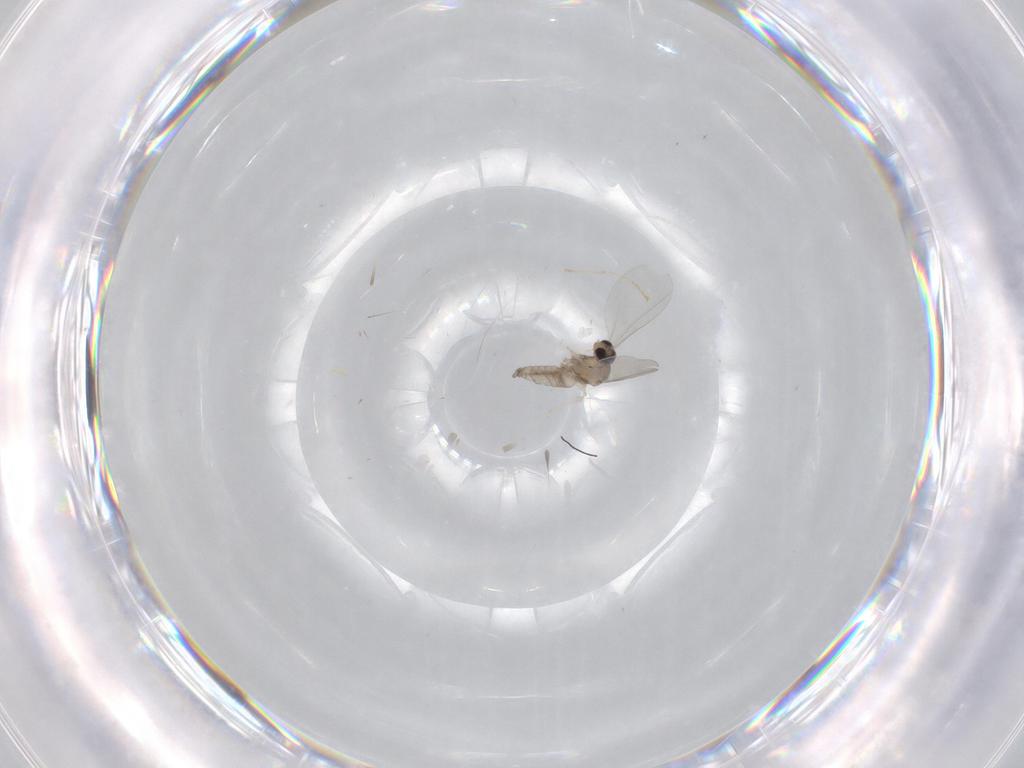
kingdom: Animalia
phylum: Arthropoda
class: Insecta
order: Diptera
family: Cecidomyiidae
